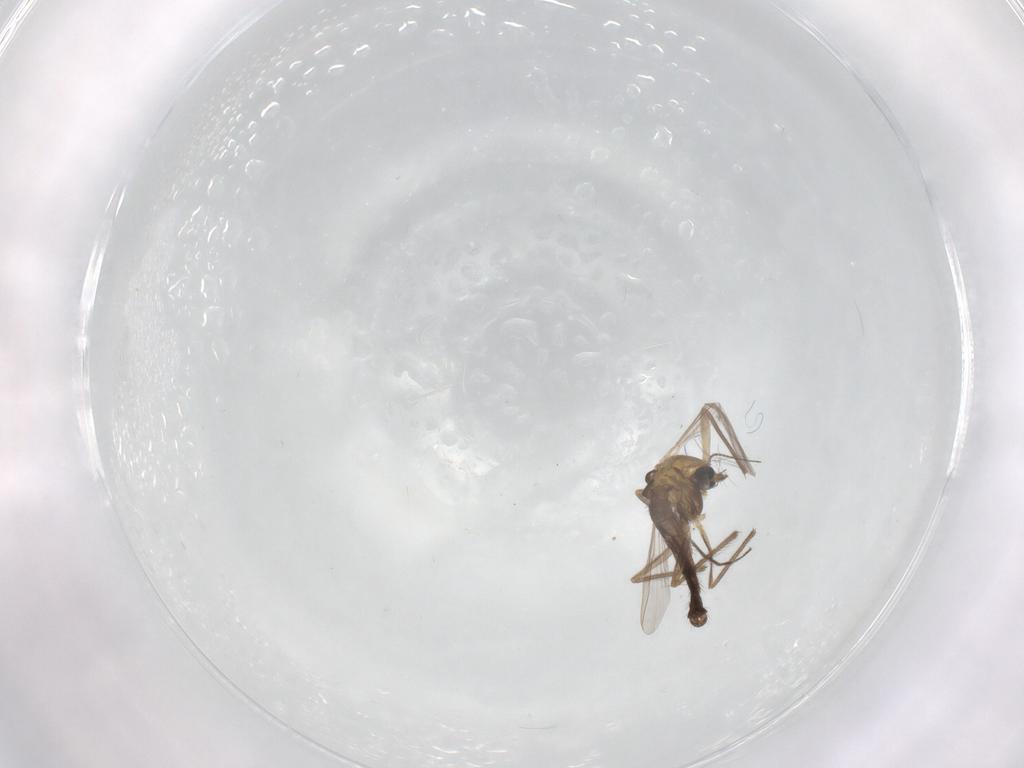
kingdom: Animalia
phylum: Arthropoda
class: Insecta
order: Diptera
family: Chironomidae
